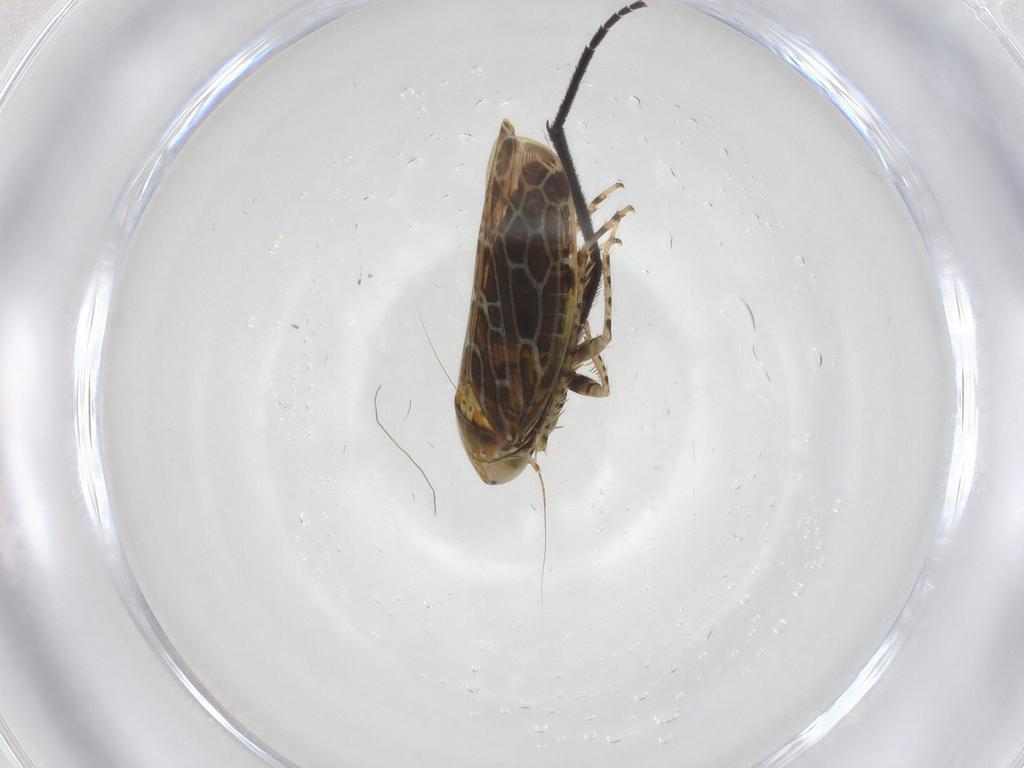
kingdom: Animalia
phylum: Arthropoda
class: Insecta
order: Hemiptera
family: Cicadellidae
